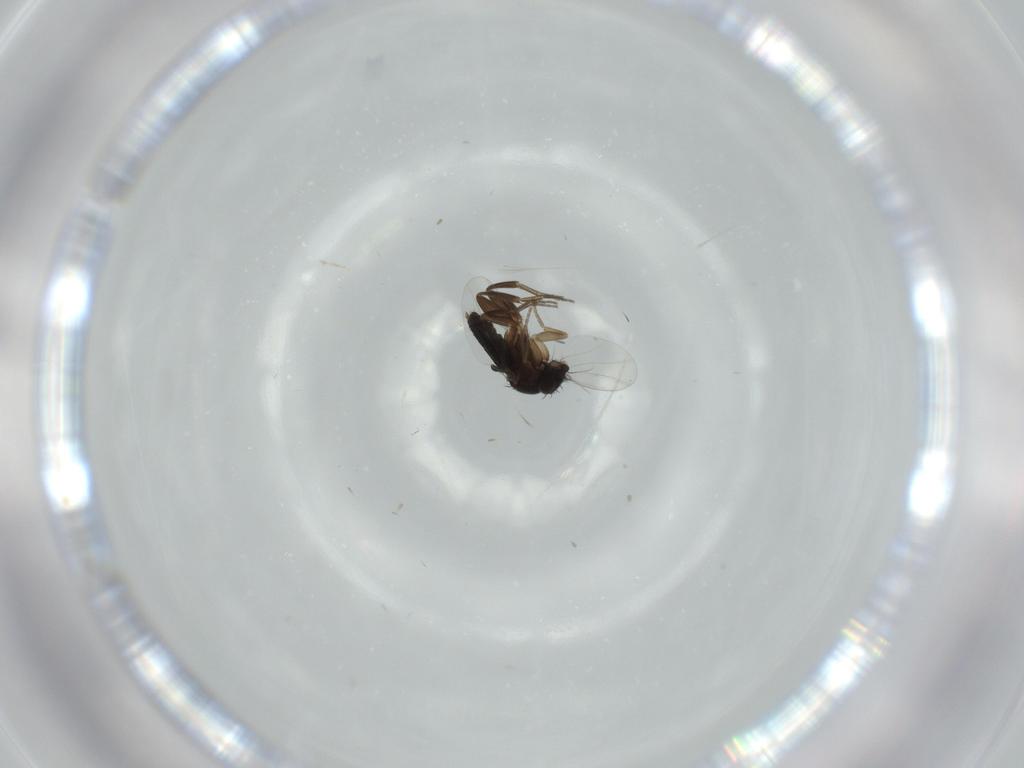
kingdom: Animalia
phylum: Arthropoda
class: Insecta
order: Diptera
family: Phoridae
